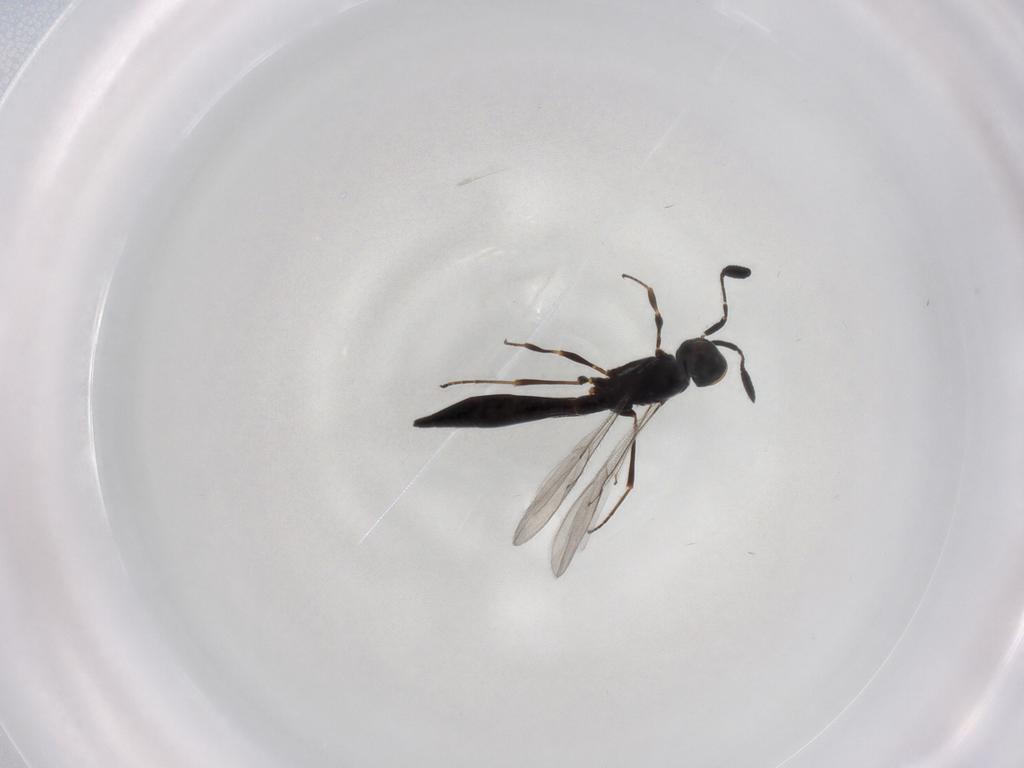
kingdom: Animalia
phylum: Arthropoda
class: Insecta
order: Hymenoptera
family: Scelionidae
